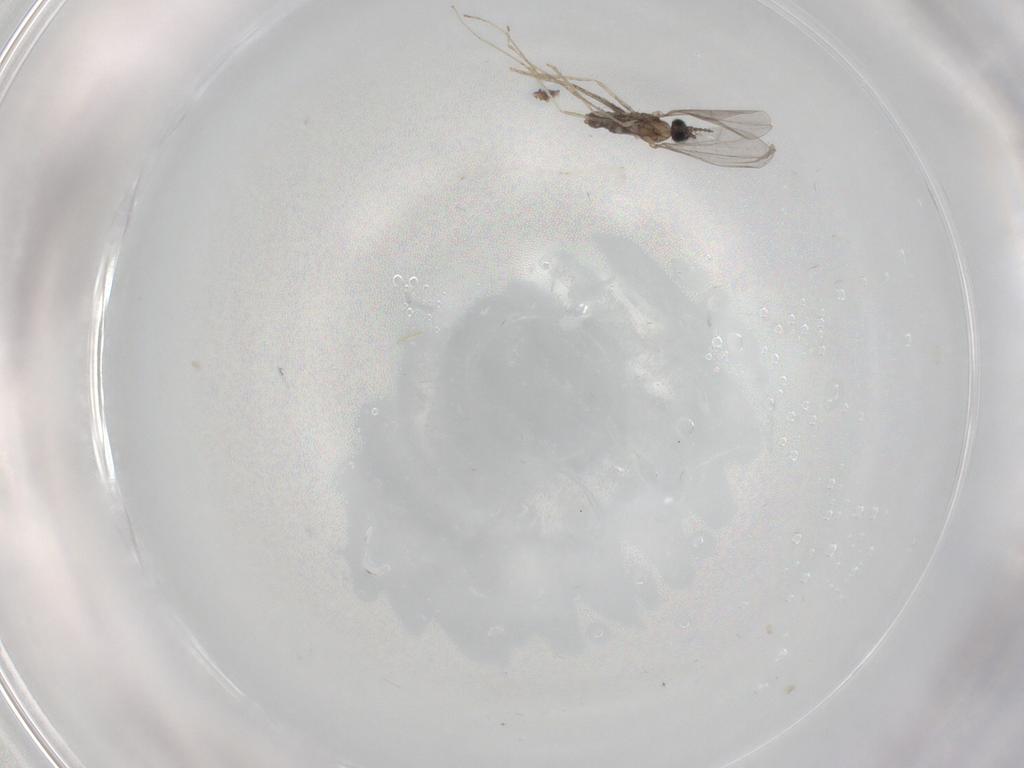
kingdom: Animalia
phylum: Arthropoda
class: Insecta
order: Diptera
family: Cecidomyiidae
